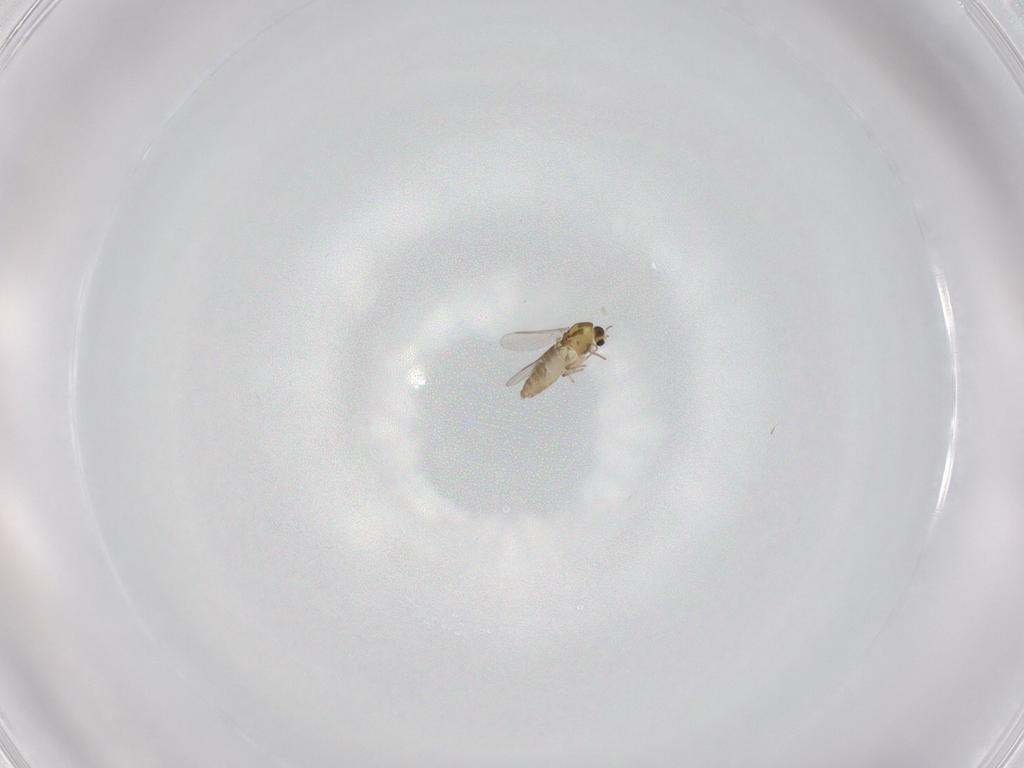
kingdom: Animalia
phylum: Arthropoda
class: Insecta
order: Diptera
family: Chironomidae
